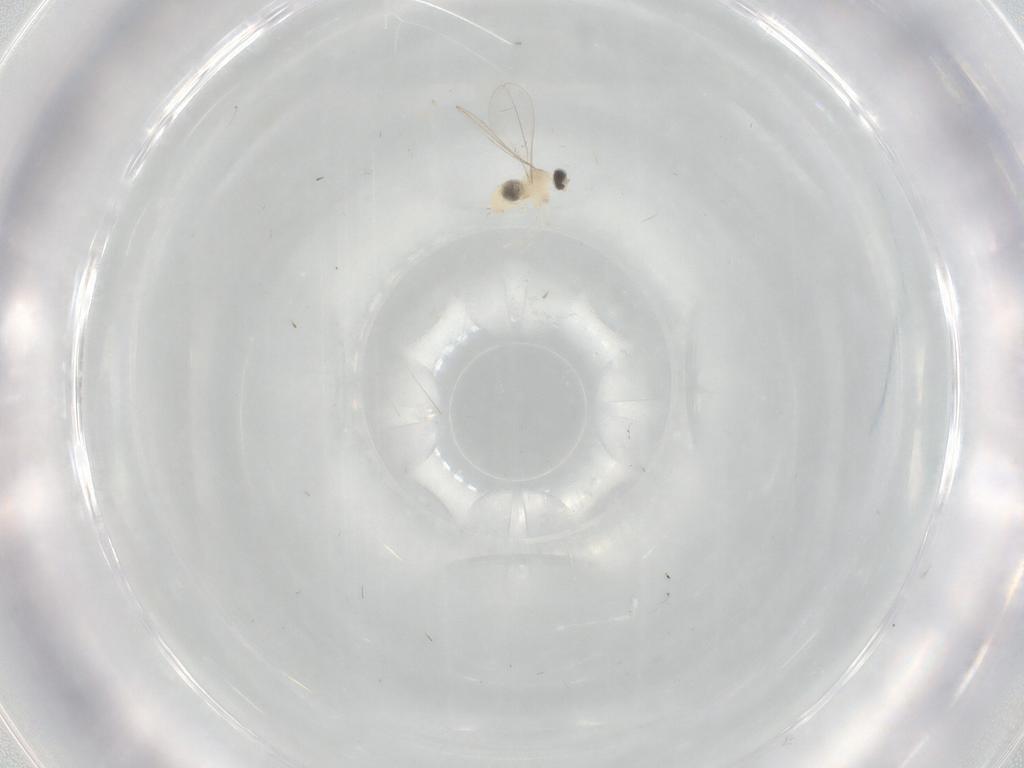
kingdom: Animalia
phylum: Arthropoda
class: Insecta
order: Diptera
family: Cecidomyiidae
